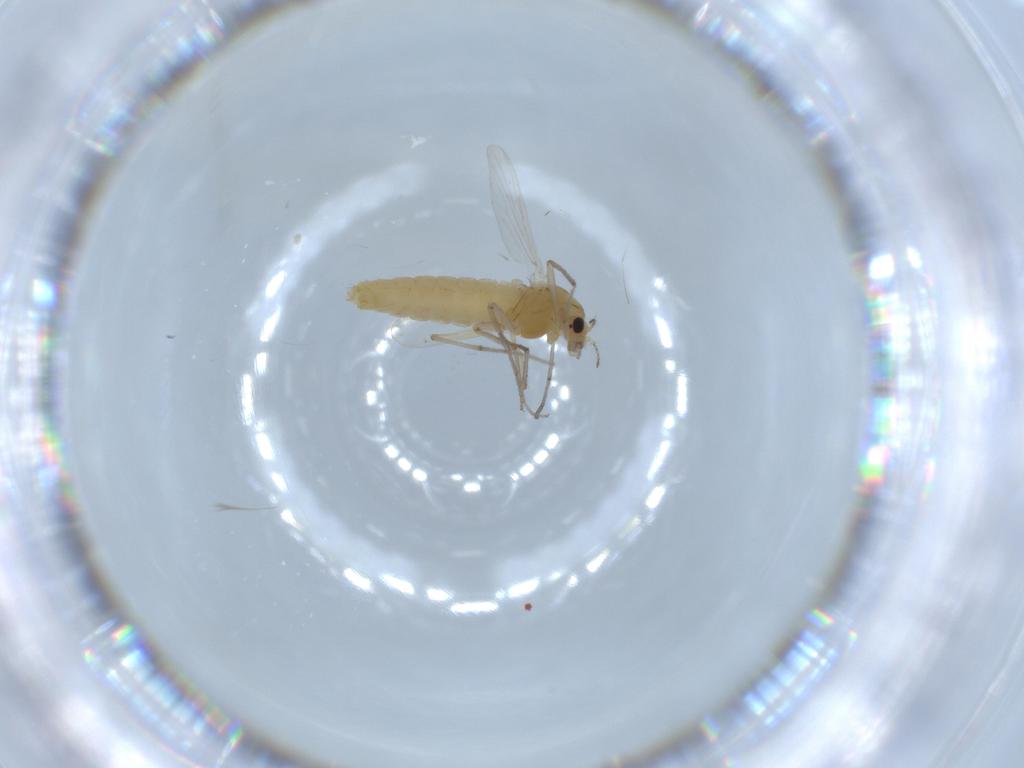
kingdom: Animalia
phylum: Arthropoda
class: Insecta
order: Diptera
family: Chironomidae
